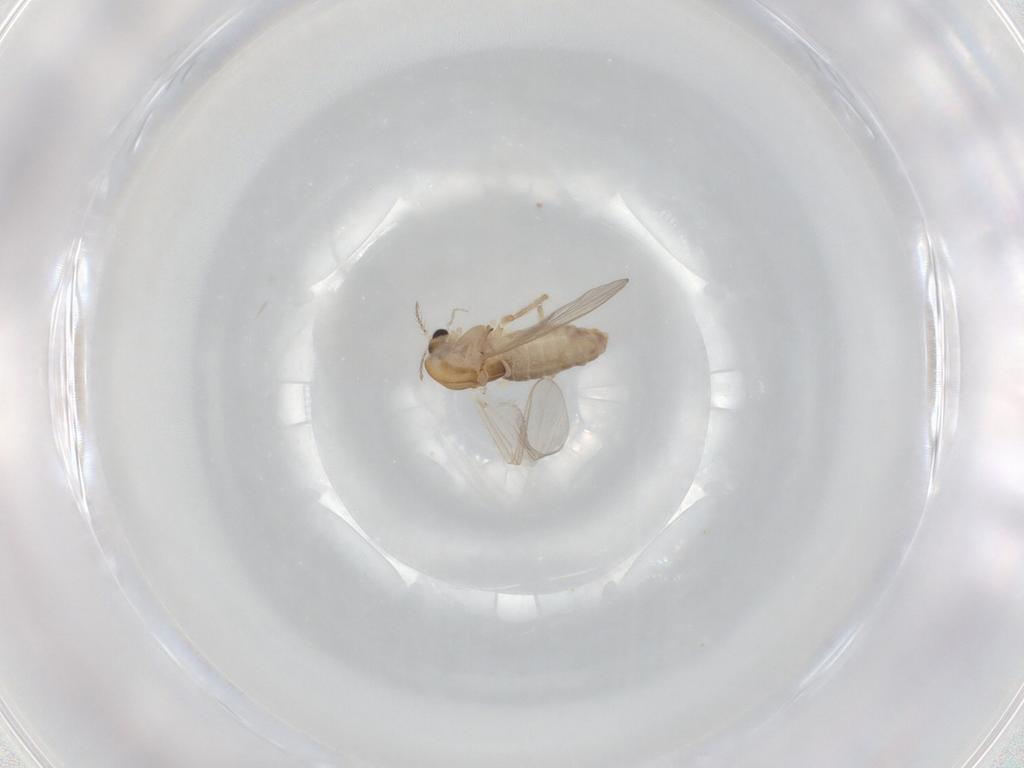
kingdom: Animalia
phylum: Arthropoda
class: Insecta
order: Diptera
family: Chironomidae
